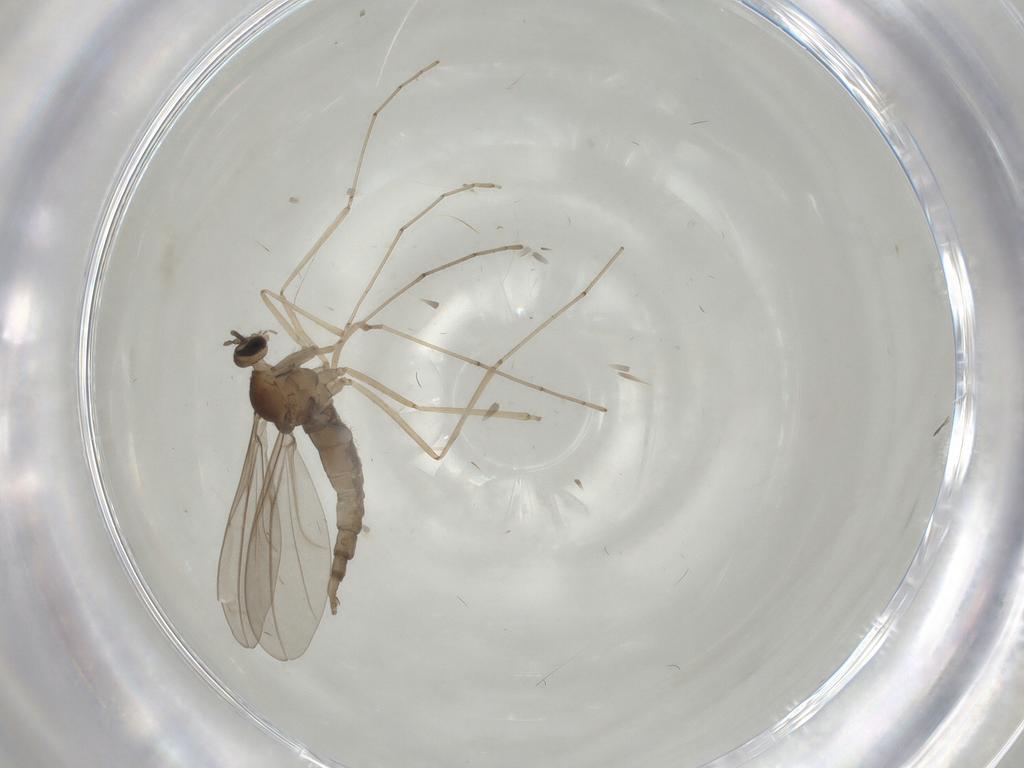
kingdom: Animalia
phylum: Arthropoda
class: Insecta
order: Diptera
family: Cecidomyiidae
